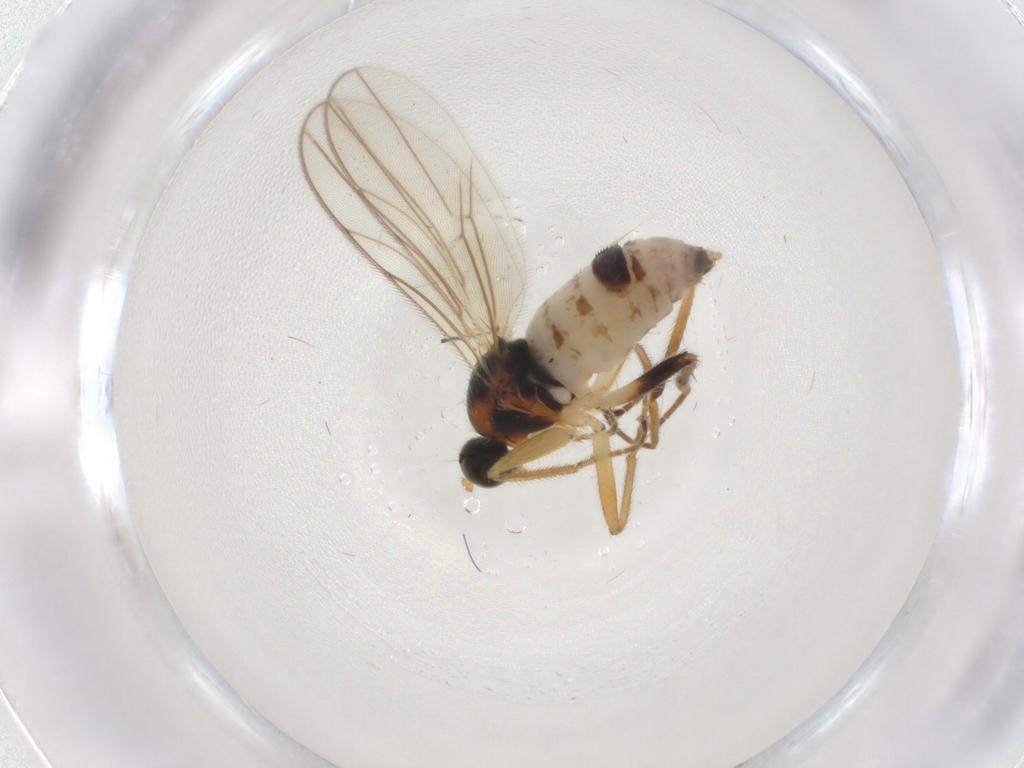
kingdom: Animalia
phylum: Arthropoda
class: Insecta
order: Diptera
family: Hybotidae
